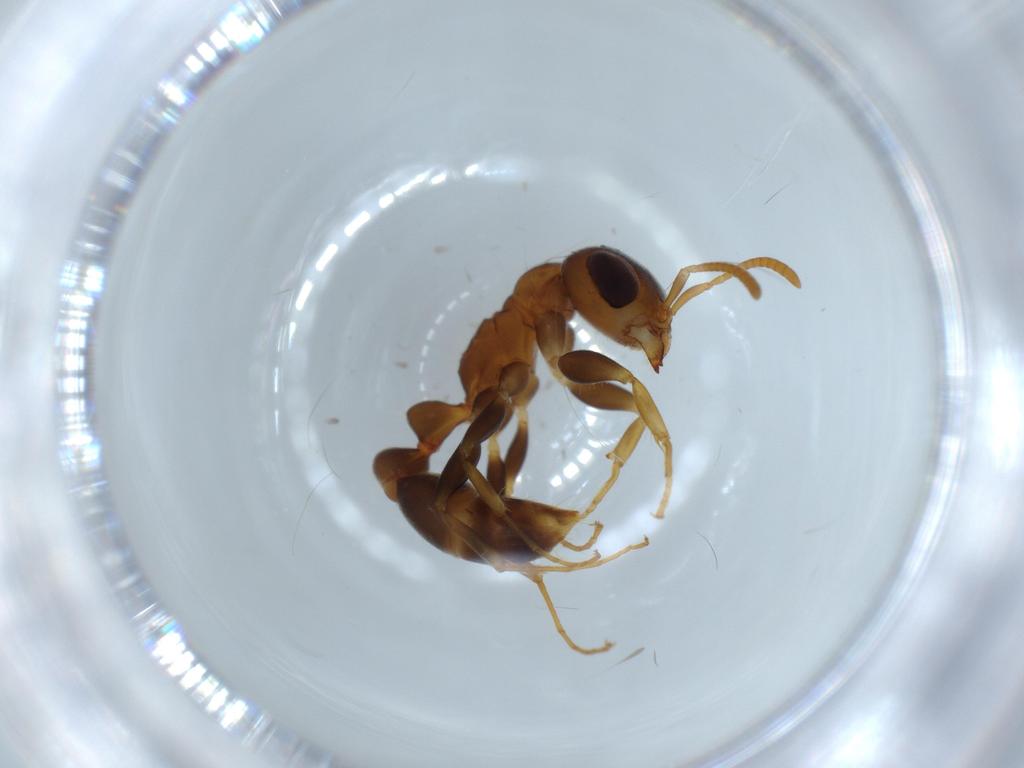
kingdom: Animalia
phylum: Arthropoda
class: Insecta
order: Hymenoptera
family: Formicidae
